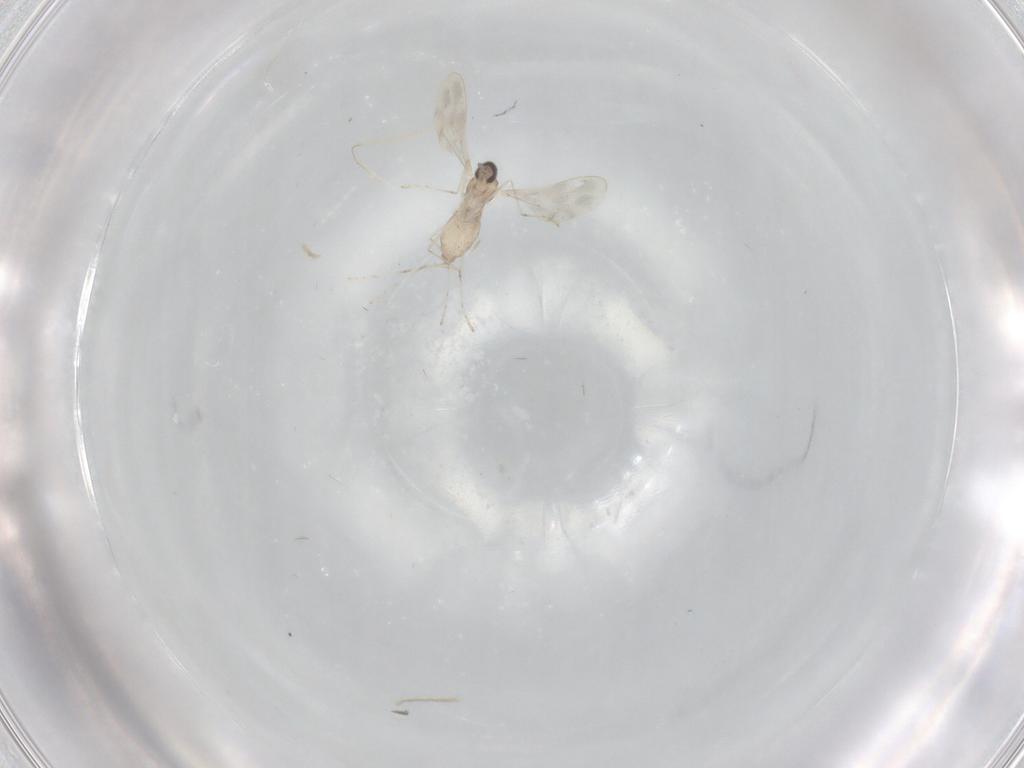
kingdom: Animalia
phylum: Arthropoda
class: Insecta
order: Diptera
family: Cecidomyiidae
